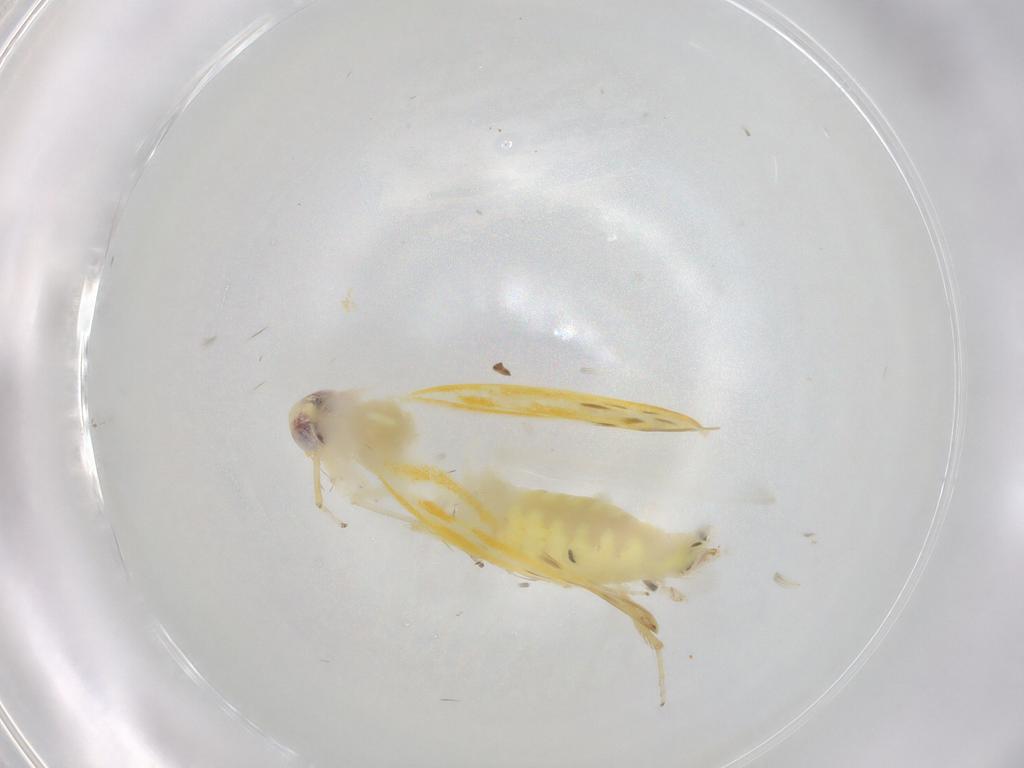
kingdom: Animalia
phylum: Arthropoda
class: Insecta
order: Hemiptera
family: Cicadellidae
